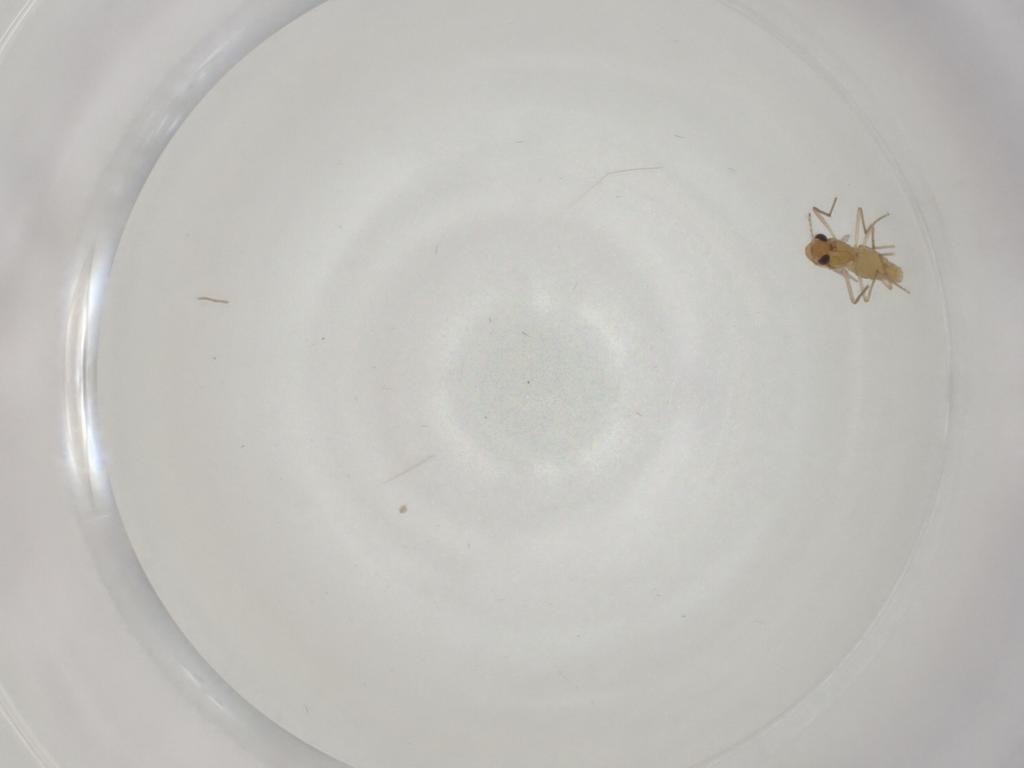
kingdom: Animalia
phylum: Arthropoda
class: Insecta
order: Diptera
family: Chironomidae
